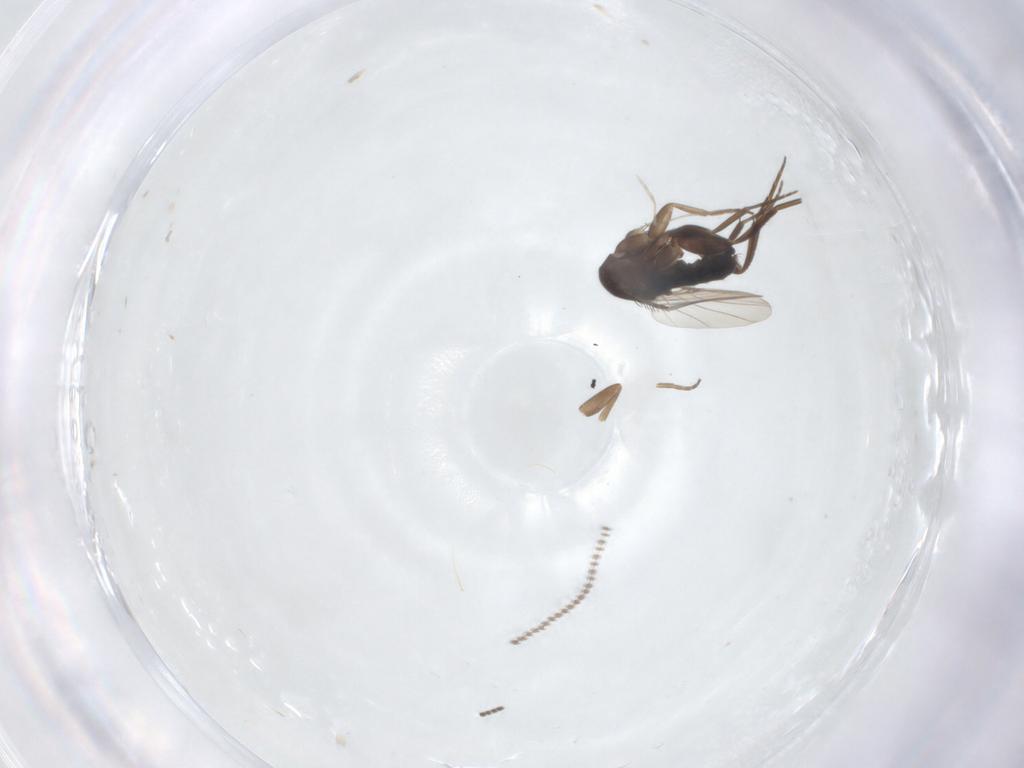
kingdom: Animalia
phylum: Arthropoda
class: Insecta
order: Diptera
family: Cecidomyiidae
